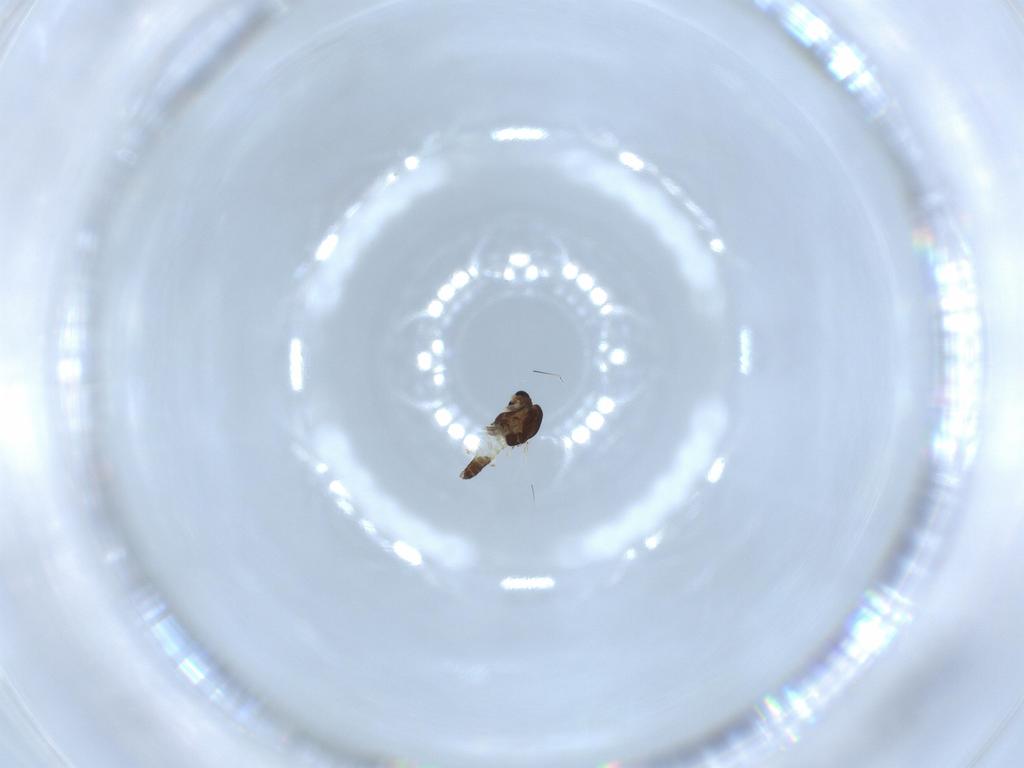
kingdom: Animalia
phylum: Arthropoda
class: Insecta
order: Diptera
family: Chironomidae
